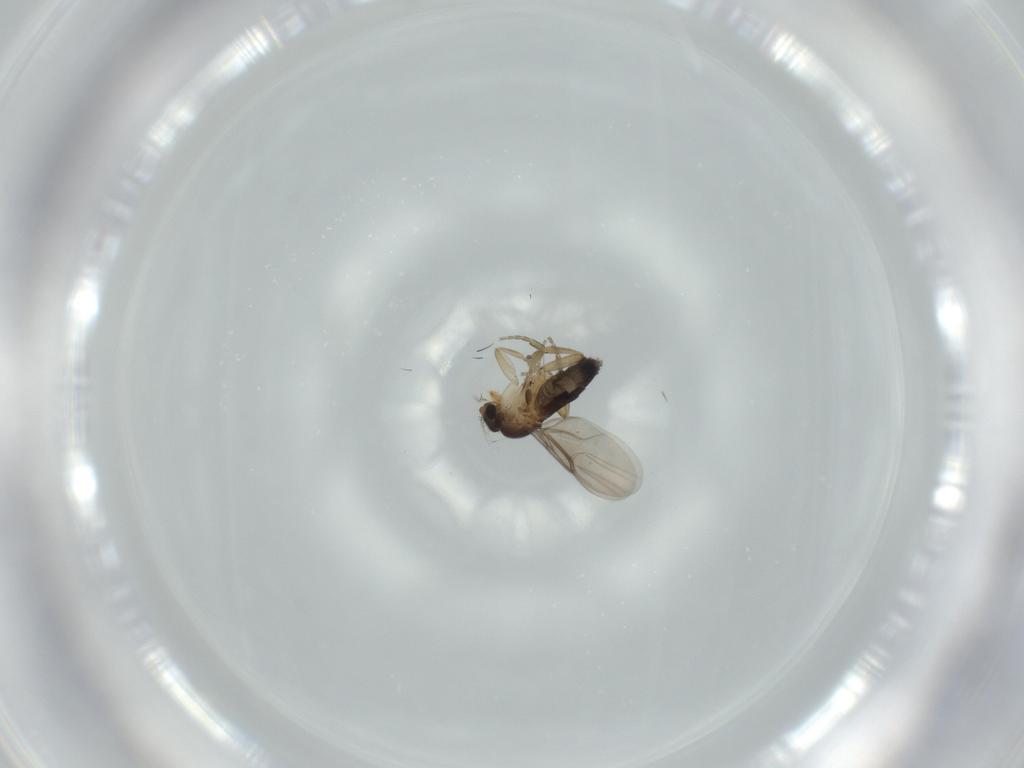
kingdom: Animalia
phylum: Arthropoda
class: Insecta
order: Diptera
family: Phoridae
